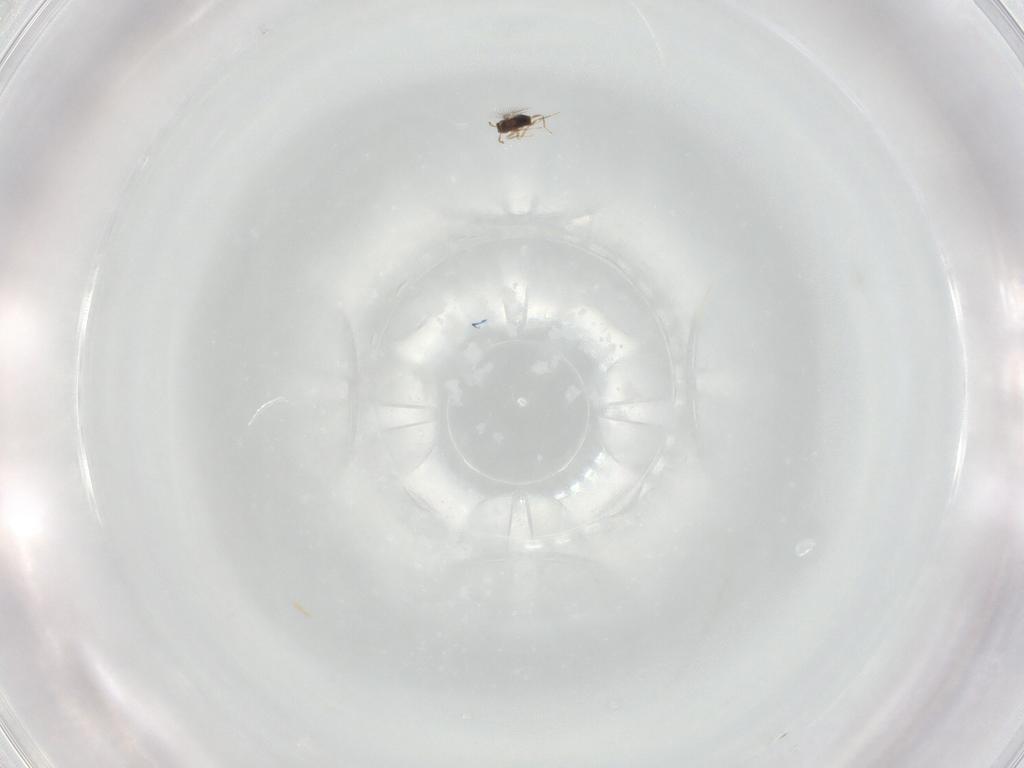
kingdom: Animalia
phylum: Arthropoda
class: Insecta
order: Hymenoptera
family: Mymaridae
